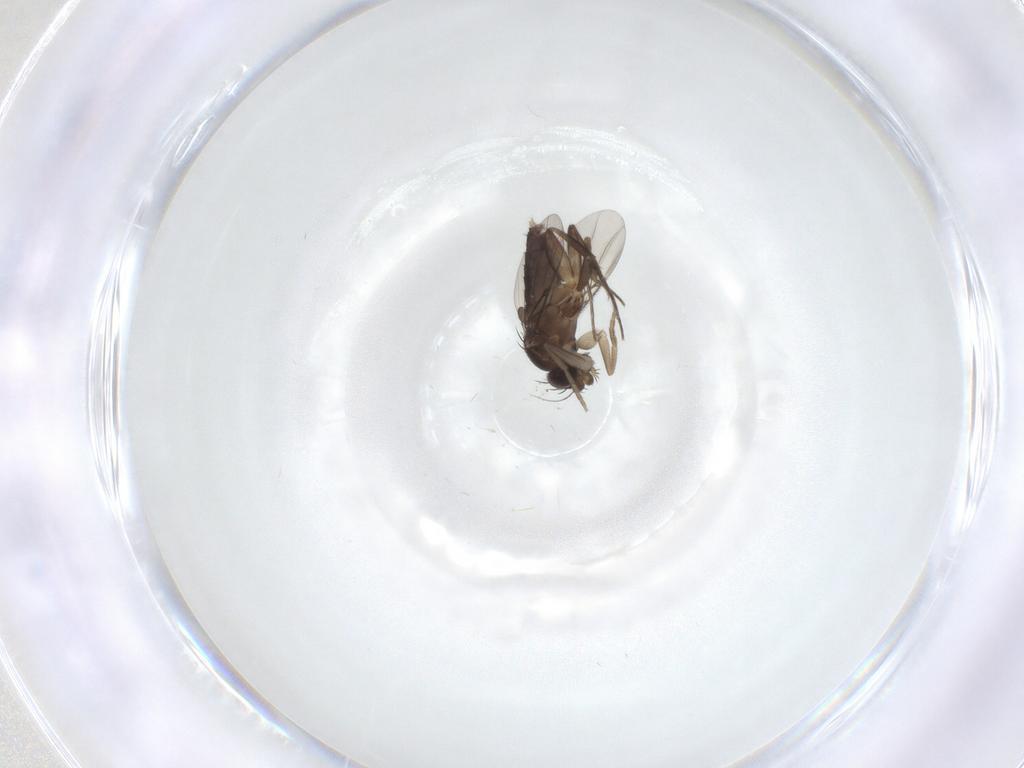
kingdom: Animalia
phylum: Arthropoda
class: Insecta
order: Diptera
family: Phoridae
